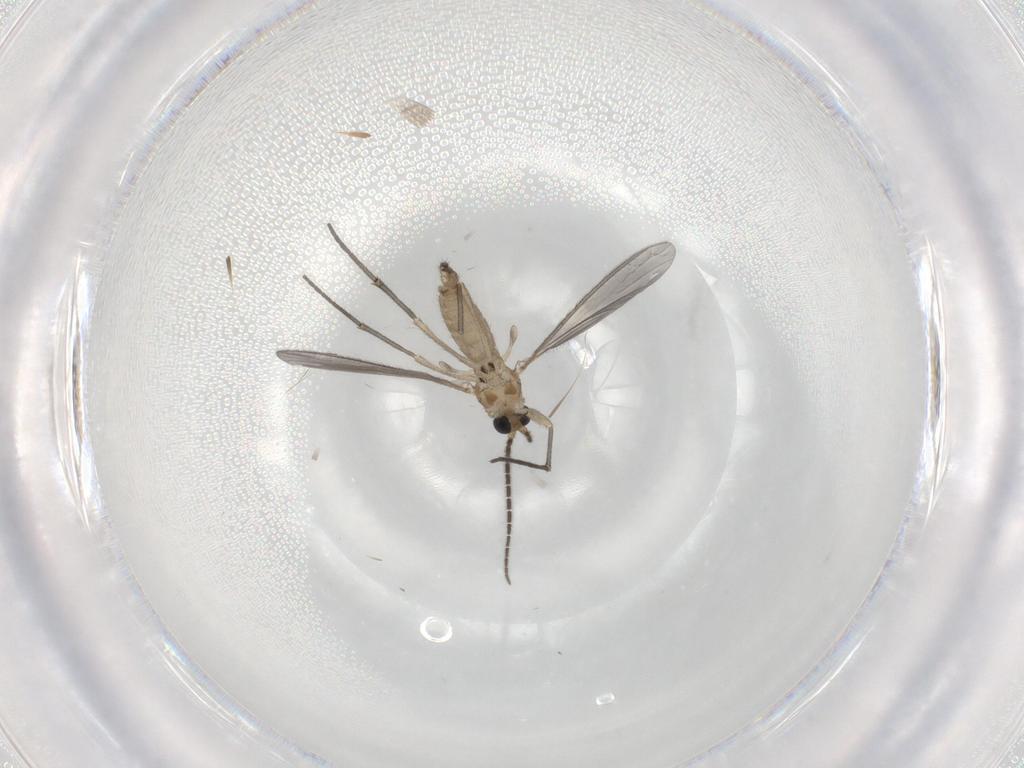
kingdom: Animalia
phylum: Arthropoda
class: Insecta
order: Diptera
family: Sciaridae
